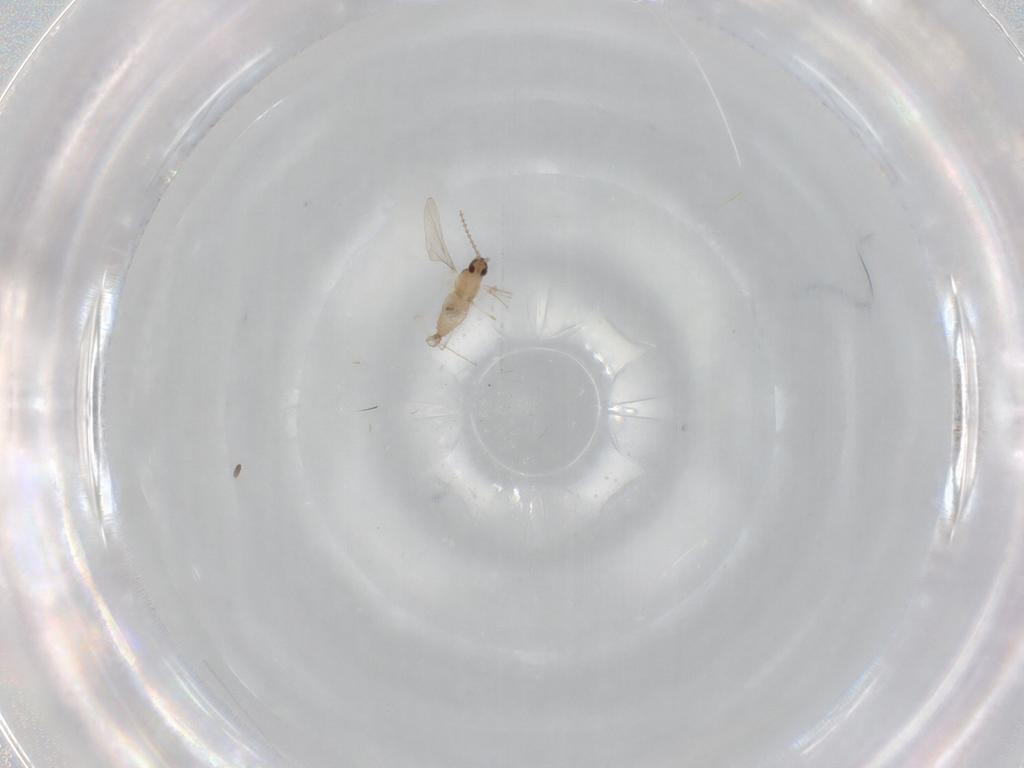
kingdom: Animalia
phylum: Arthropoda
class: Insecta
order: Diptera
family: Cecidomyiidae
